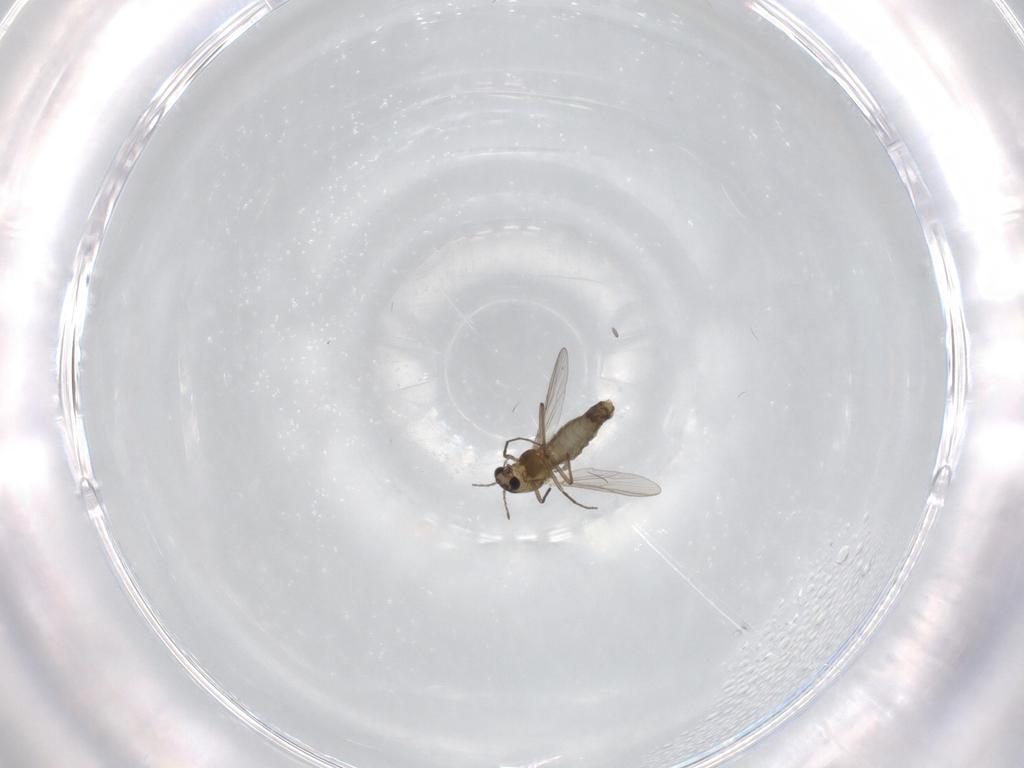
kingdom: Animalia
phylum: Arthropoda
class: Insecta
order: Diptera
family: Chironomidae
